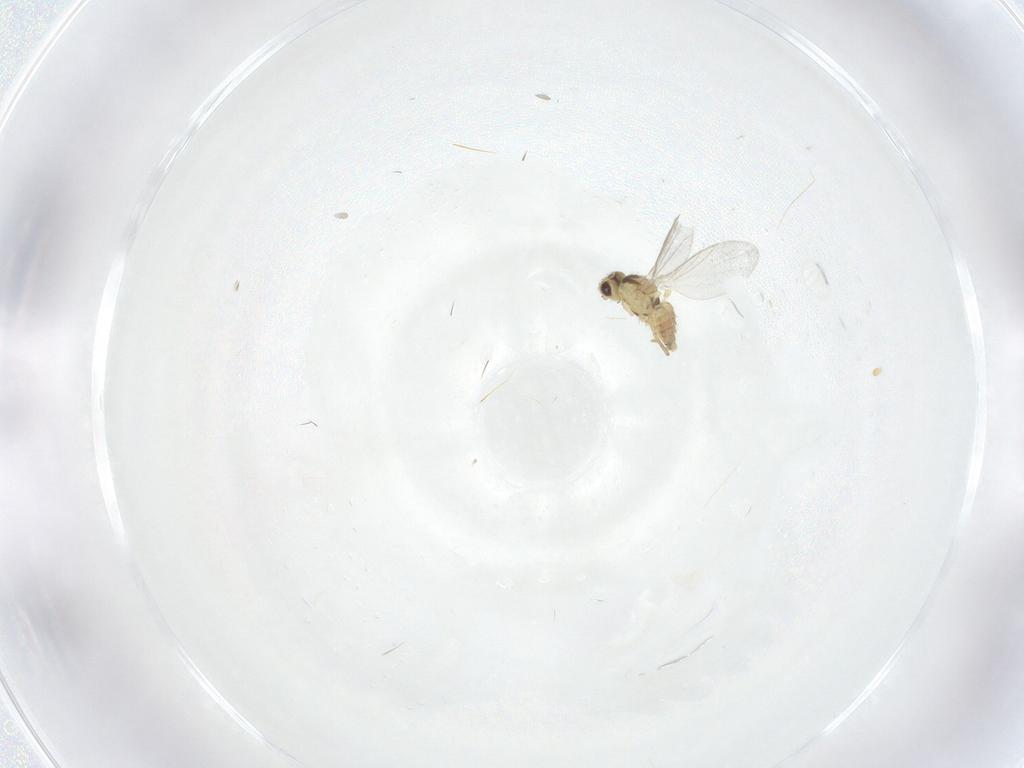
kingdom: Animalia
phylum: Arthropoda
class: Insecta
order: Diptera
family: Agromyzidae
